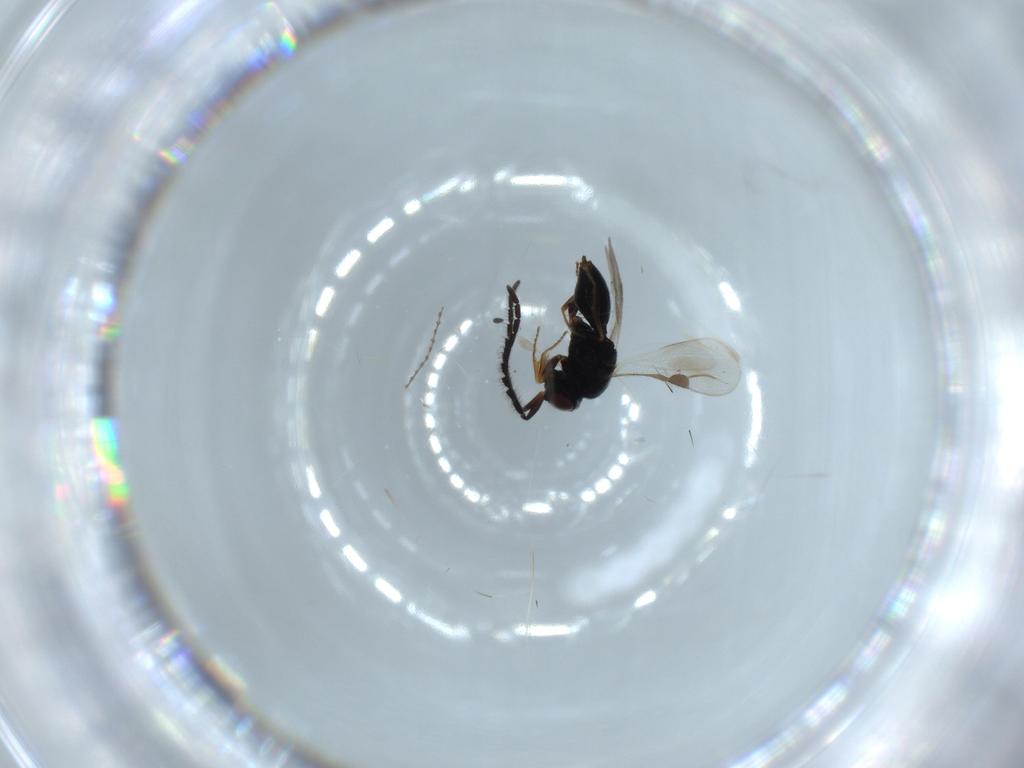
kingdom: Animalia
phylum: Arthropoda
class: Insecta
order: Hymenoptera
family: Megaspilidae
